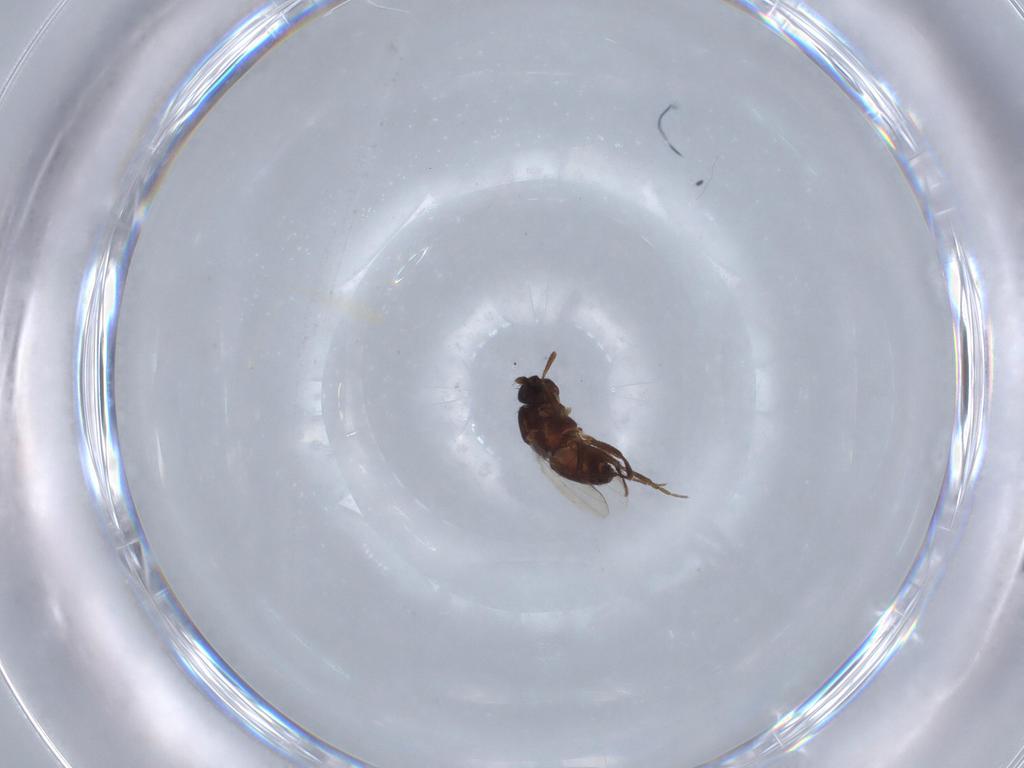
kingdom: Animalia
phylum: Arthropoda
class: Insecta
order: Diptera
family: Sphaeroceridae
